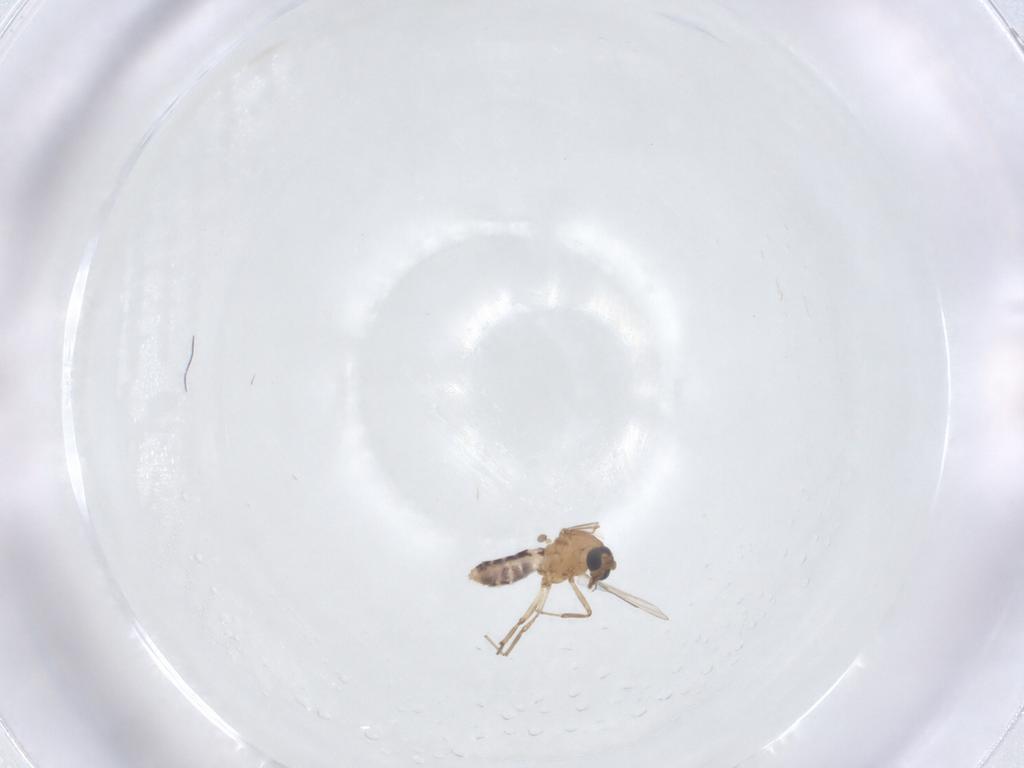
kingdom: Animalia
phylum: Arthropoda
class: Insecta
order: Diptera
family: Ceratopogonidae
